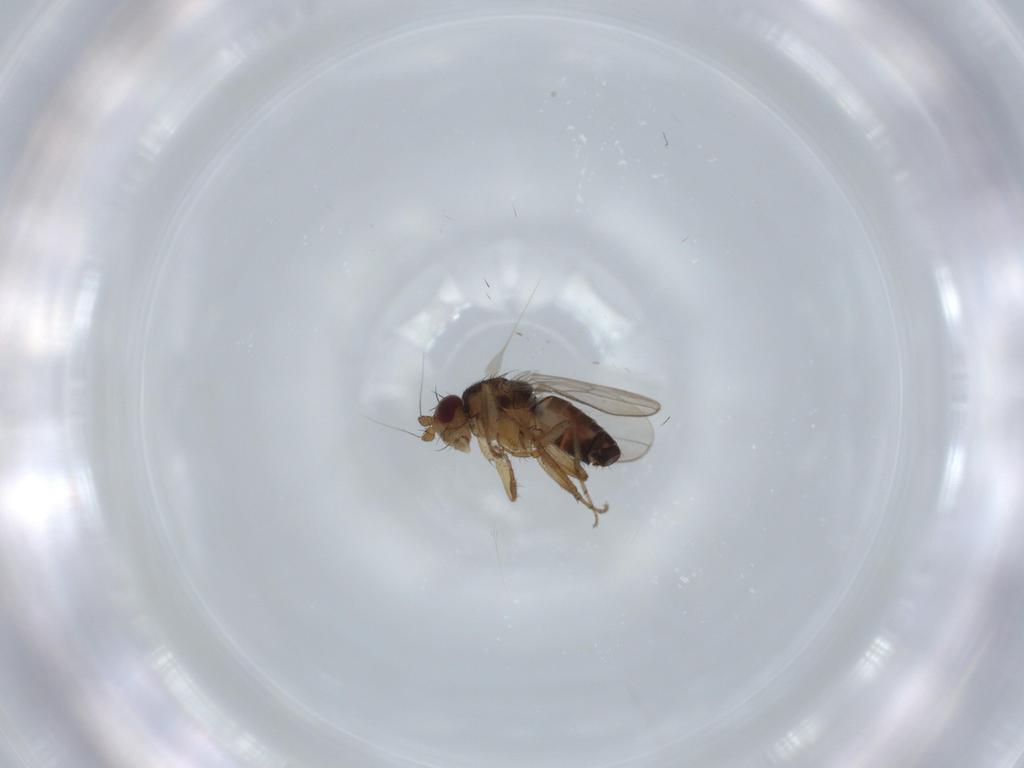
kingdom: Animalia
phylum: Arthropoda
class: Insecta
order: Diptera
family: Sphaeroceridae
